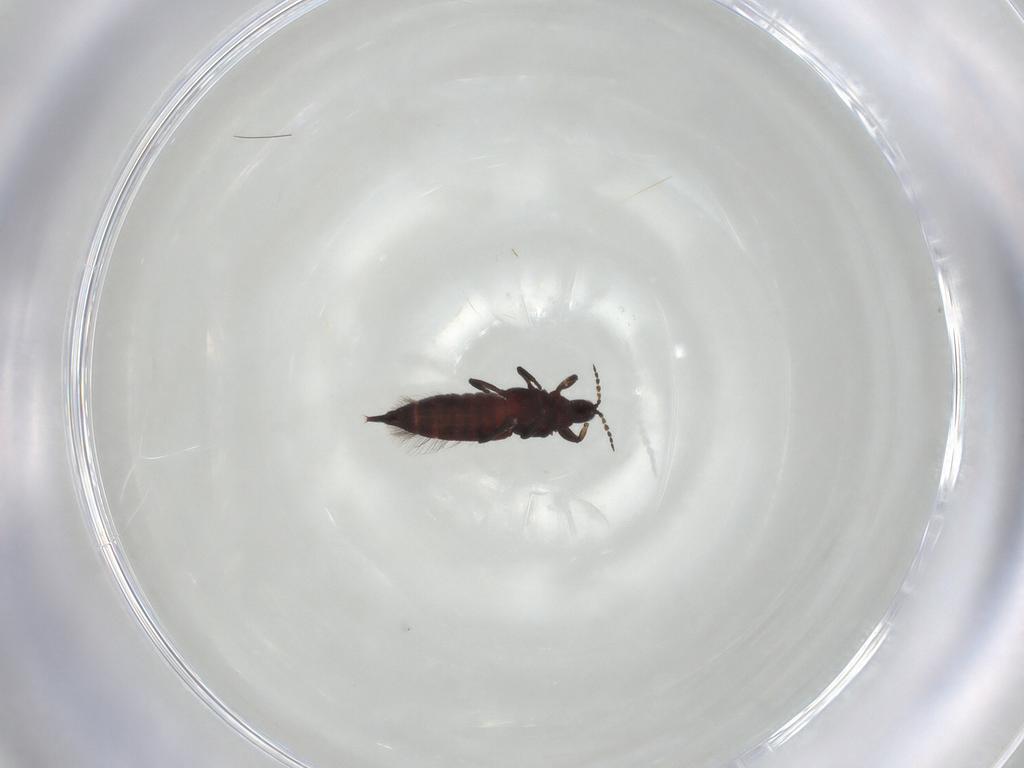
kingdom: Animalia
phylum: Arthropoda
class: Insecta
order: Thysanoptera
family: Phlaeothripidae
